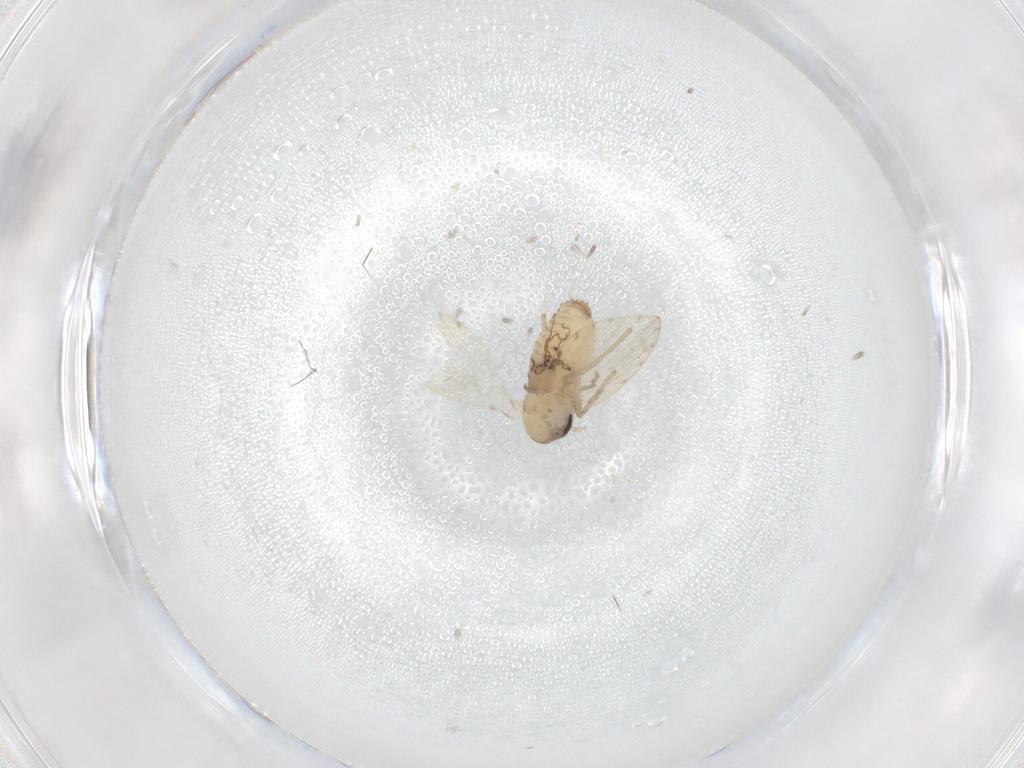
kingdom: Animalia
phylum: Arthropoda
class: Insecta
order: Diptera
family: Psychodidae
